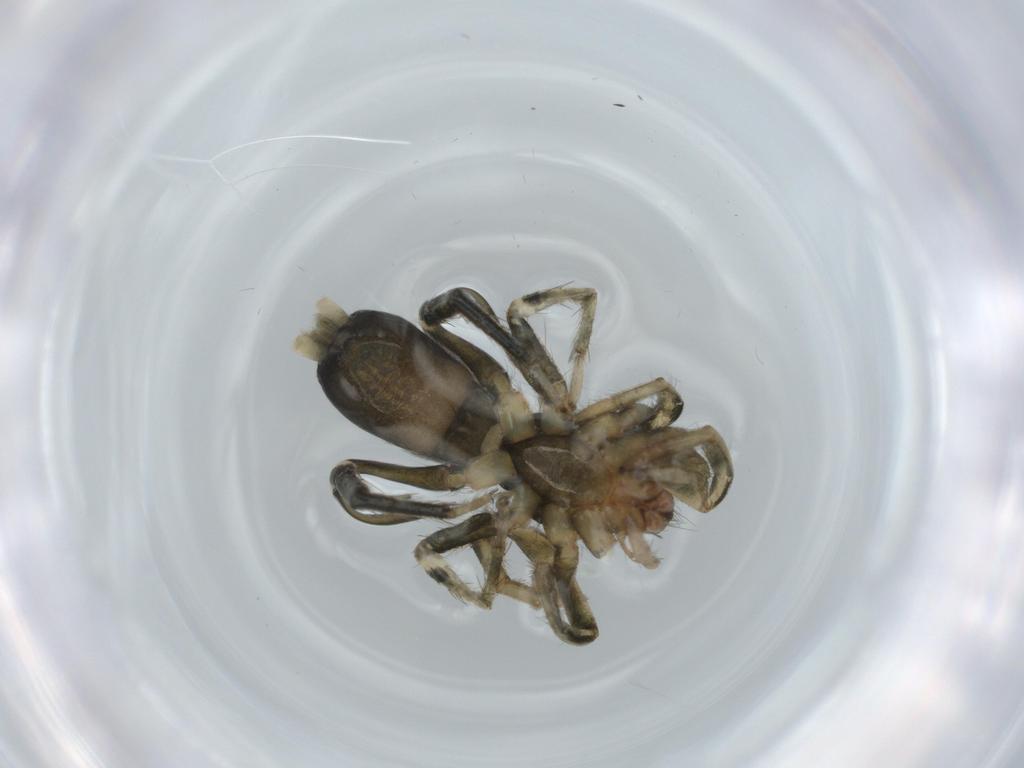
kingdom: Animalia
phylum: Arthropoda
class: Arachnida
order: Araneae
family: Gnaphosidae
